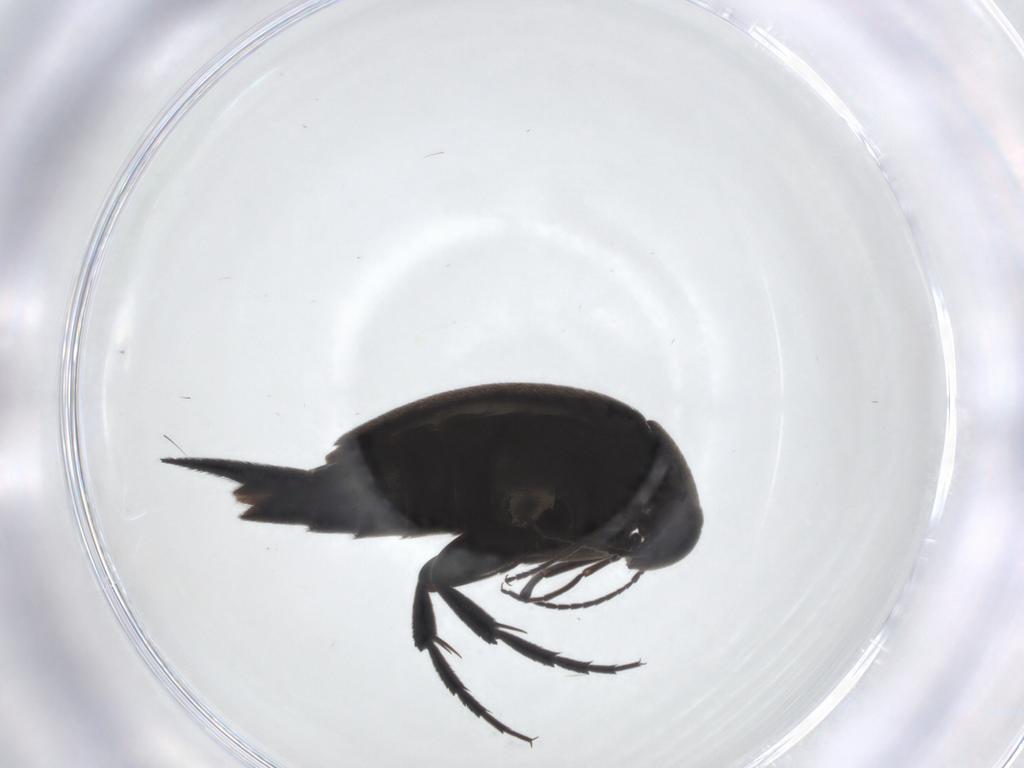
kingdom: Animalia
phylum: Arthropoda
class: Insecta
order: Coleoptera
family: Mordellidae
